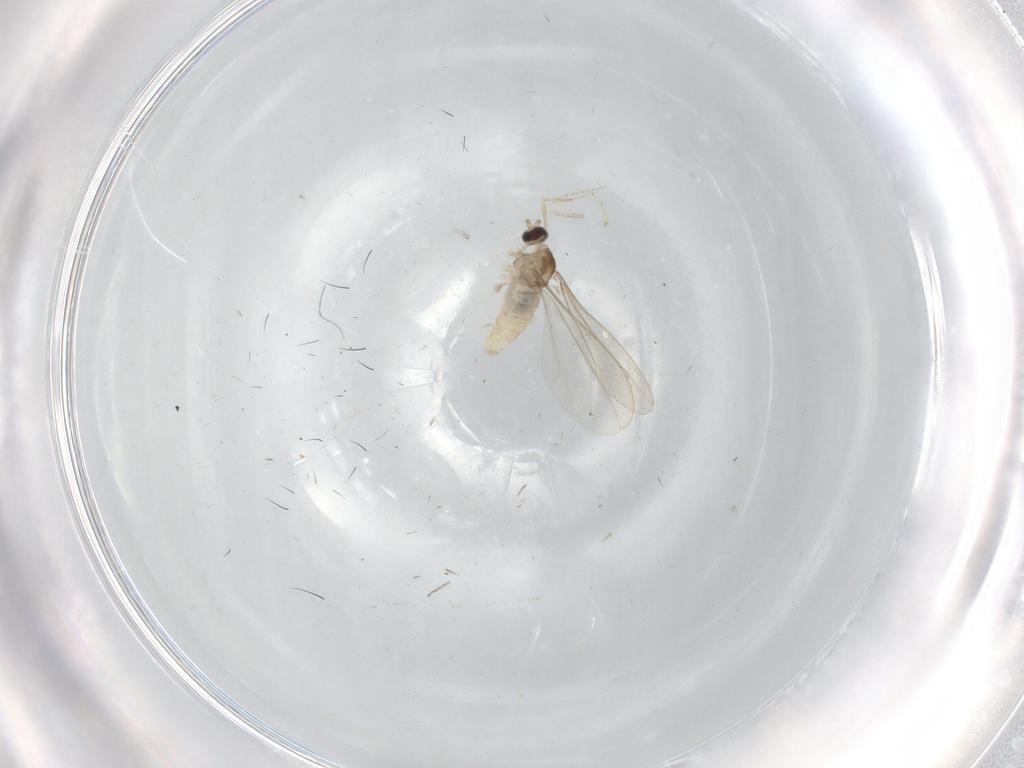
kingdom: Animalia
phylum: Arthropoda
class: Insecta
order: Diptera
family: Cecidomyiidae
